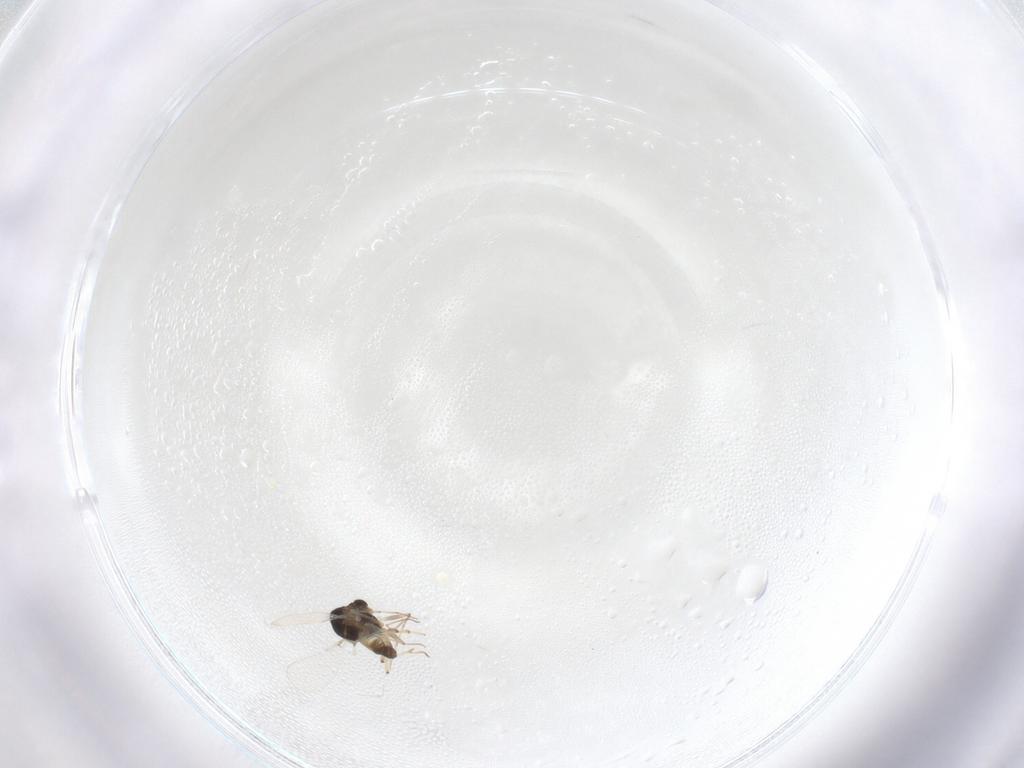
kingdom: Animalia
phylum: Arthropoda
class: Insecta
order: Diptera
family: Chironomidae
